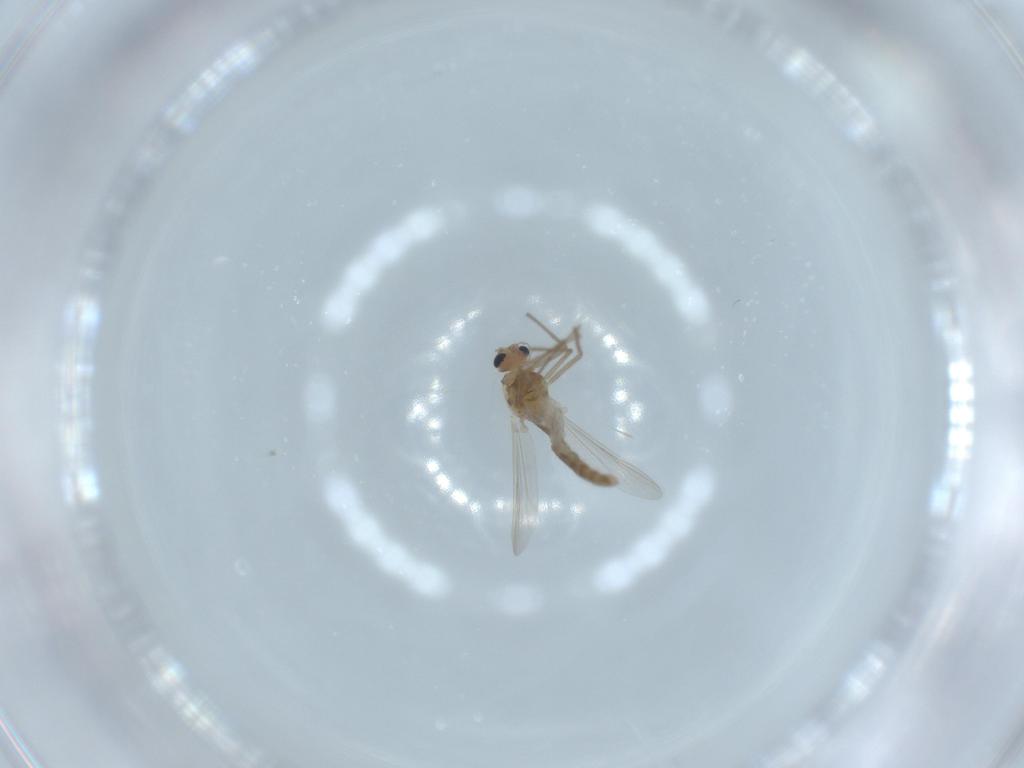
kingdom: Animalia
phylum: Arthropoda
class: Insecta
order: Diptera
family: Chironomidae
